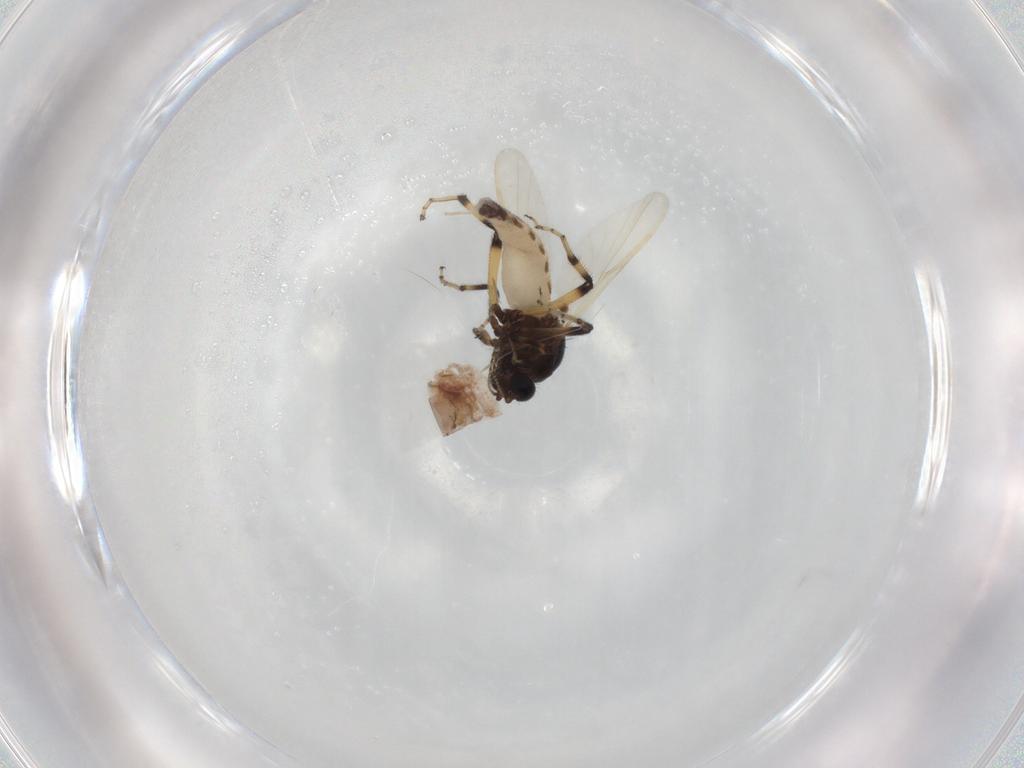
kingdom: Animalia
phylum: Arthropoda
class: Insecta
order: Diptera
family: Ceratopogonidae
